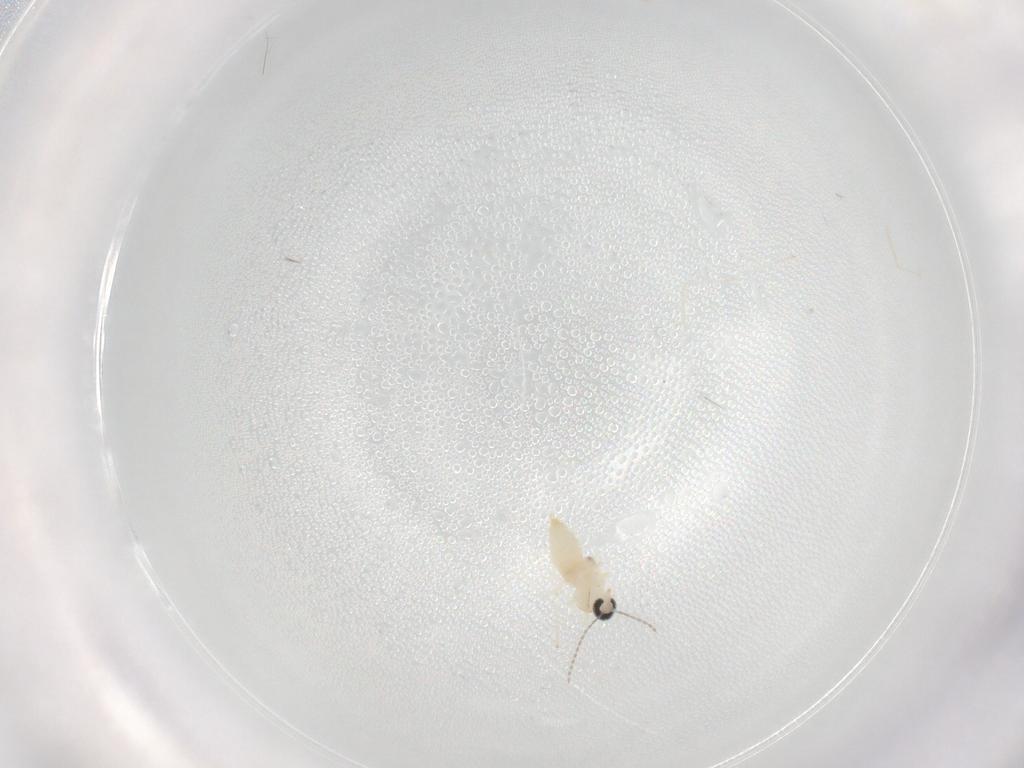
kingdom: Animalia
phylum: Arthropoda
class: Insecta
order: Diptera
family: Cecidomyiidae
